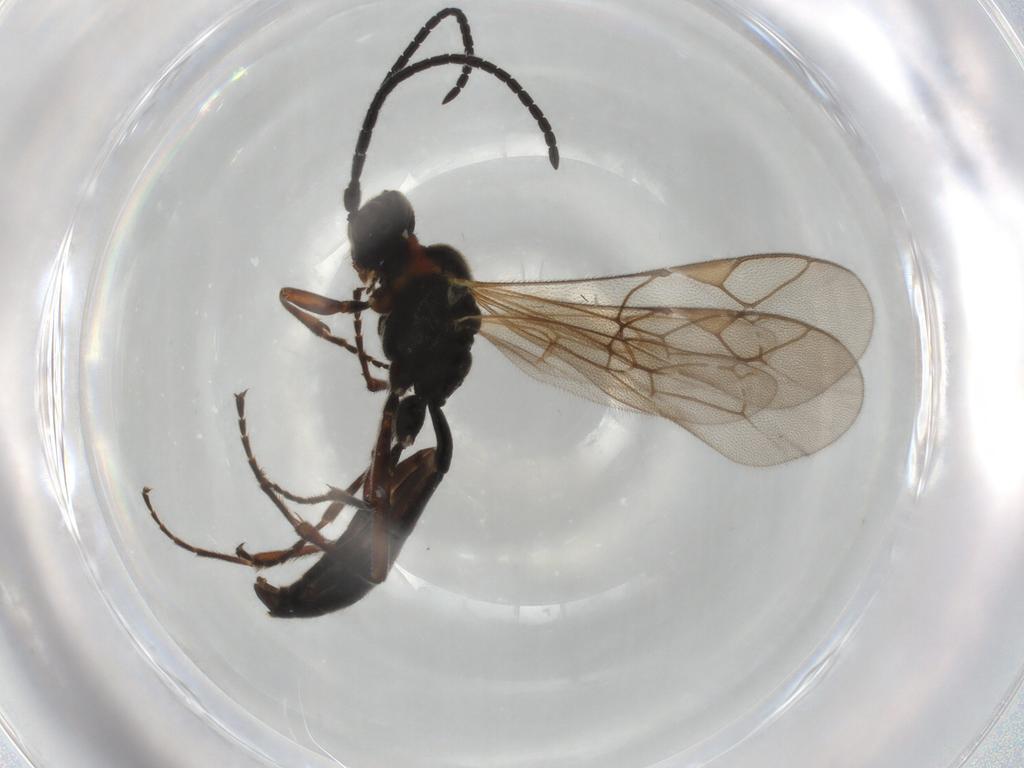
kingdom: Animalia
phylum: Arthropoda
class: Insecta
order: Hymenoptera
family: Ichneumonidae
